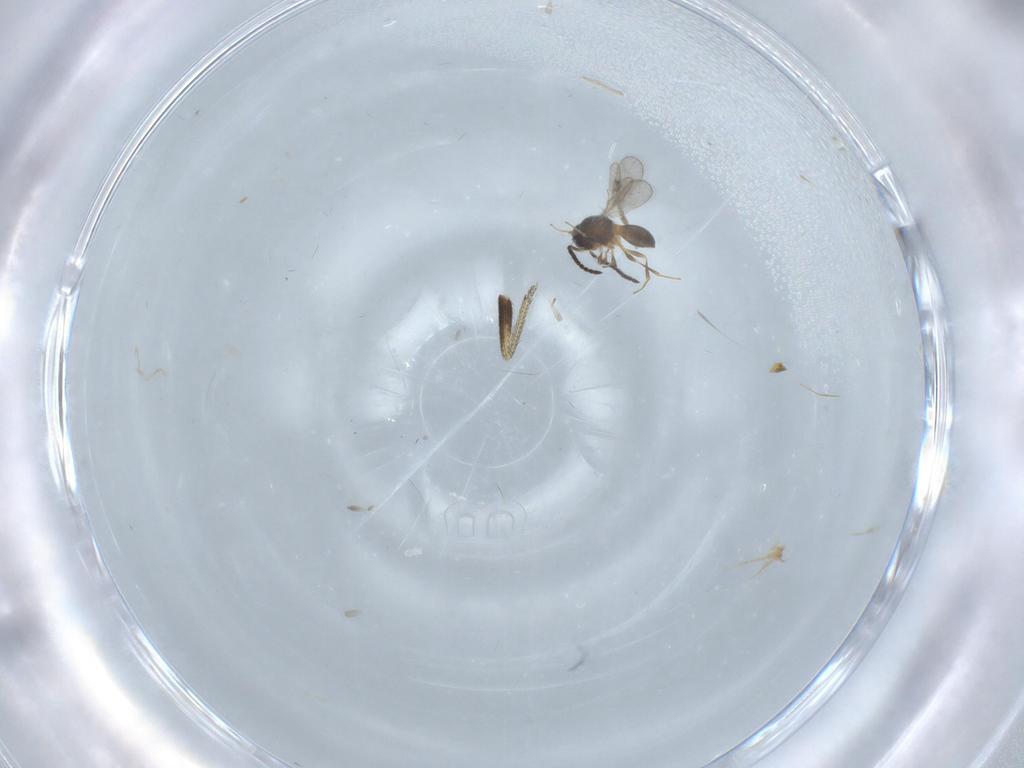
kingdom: Animalia
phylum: Arthropoda
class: Insecta
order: Hymenoptera
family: Scelionidae
